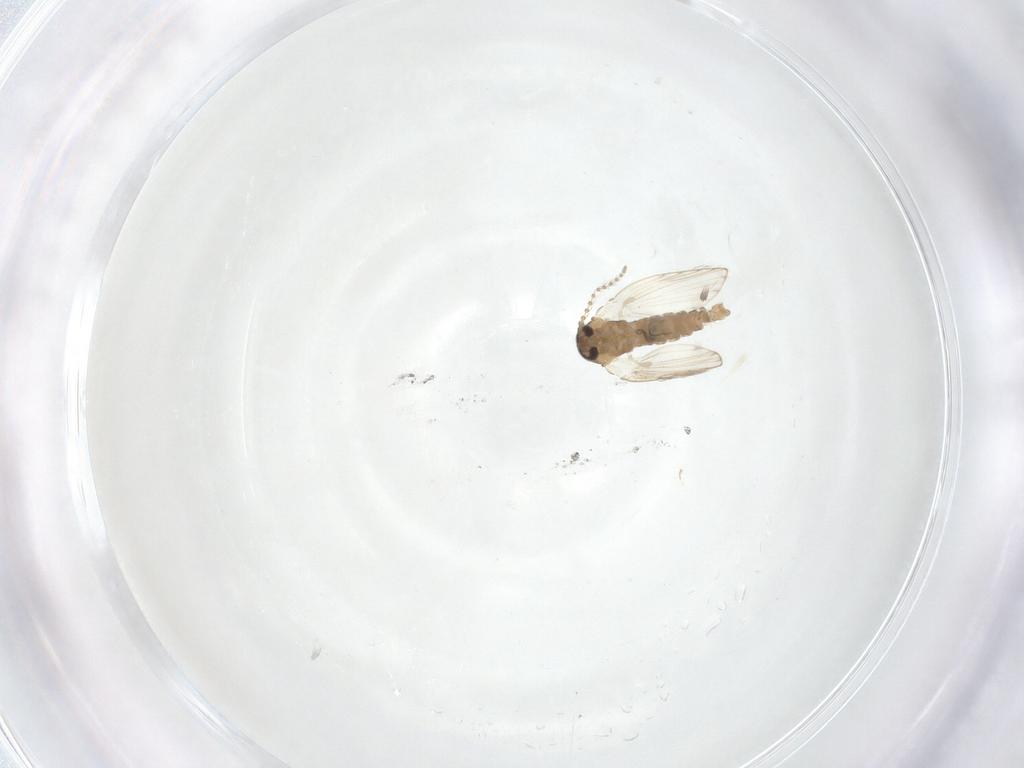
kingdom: Animalia
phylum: Arthropoda
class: Insecta
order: Diptera
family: Psychodidae
